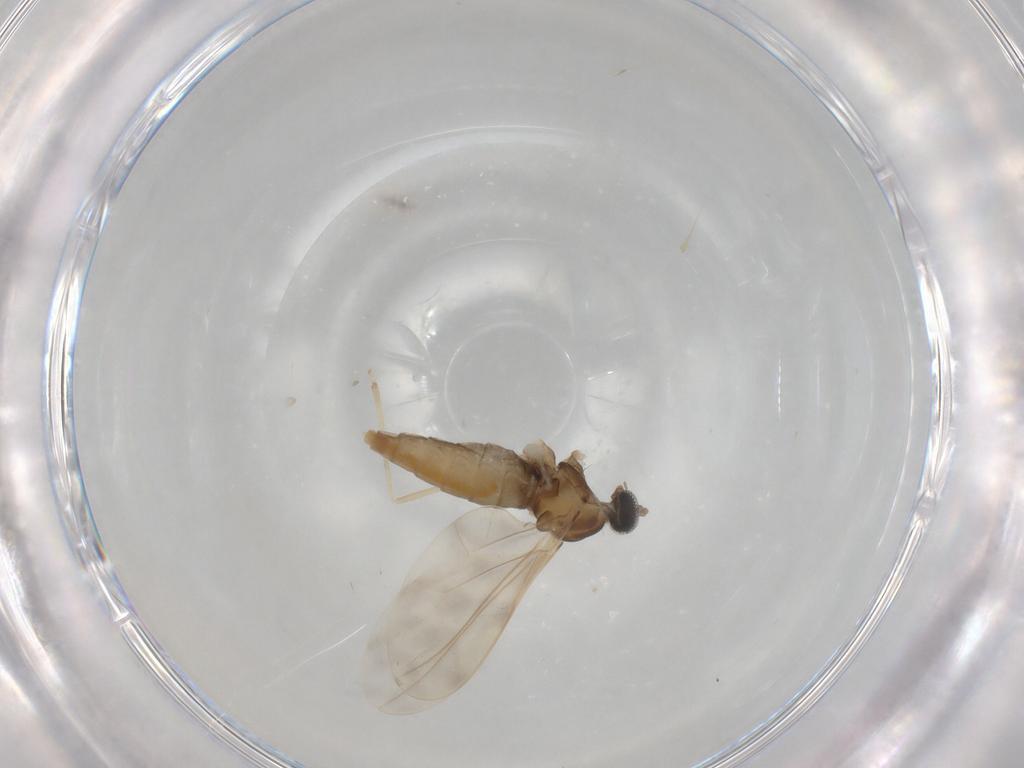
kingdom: Animalia
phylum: Arthropoda
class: Insecta
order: Diptera
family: Cecidomyiidae
